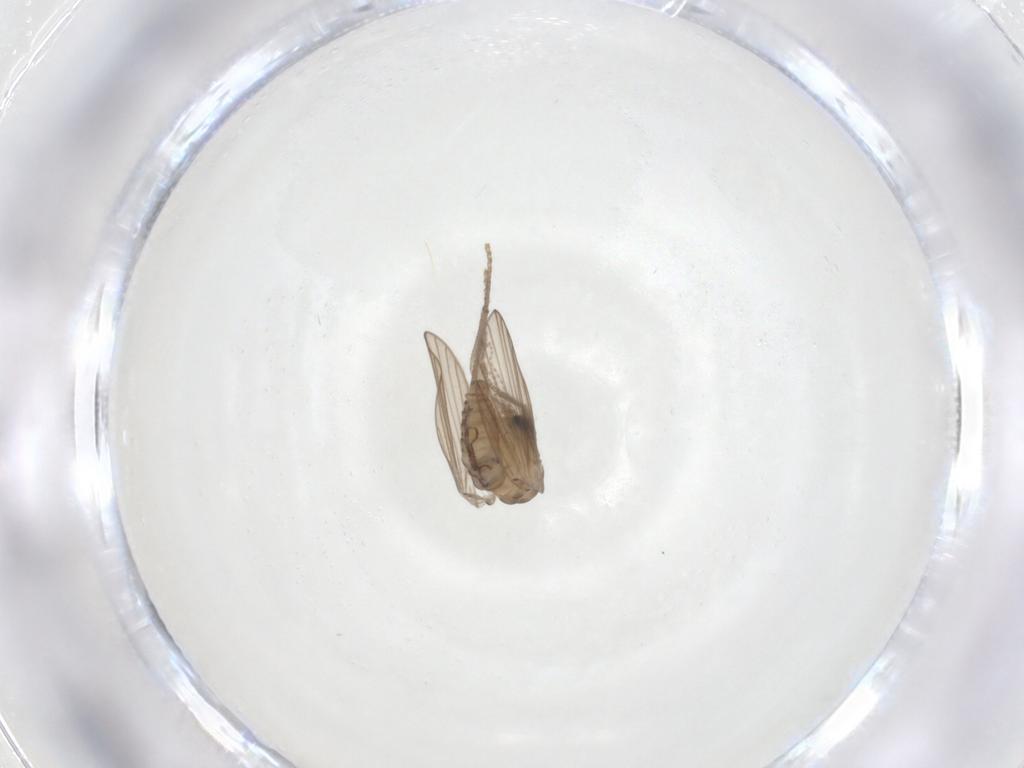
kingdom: Animalia
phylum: Arthropoda
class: Insecta
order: Diptera
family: Psychodidae
